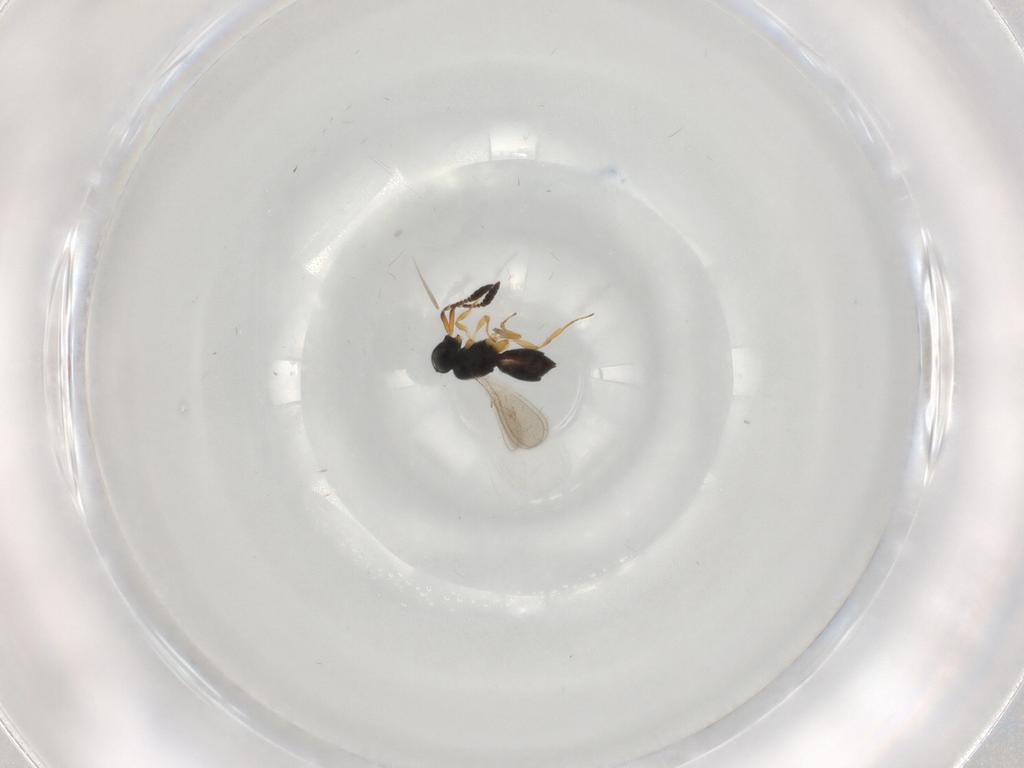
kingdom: Animalia
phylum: Arthropoda
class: Insecta
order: Hymenoptera
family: Scelionidae
